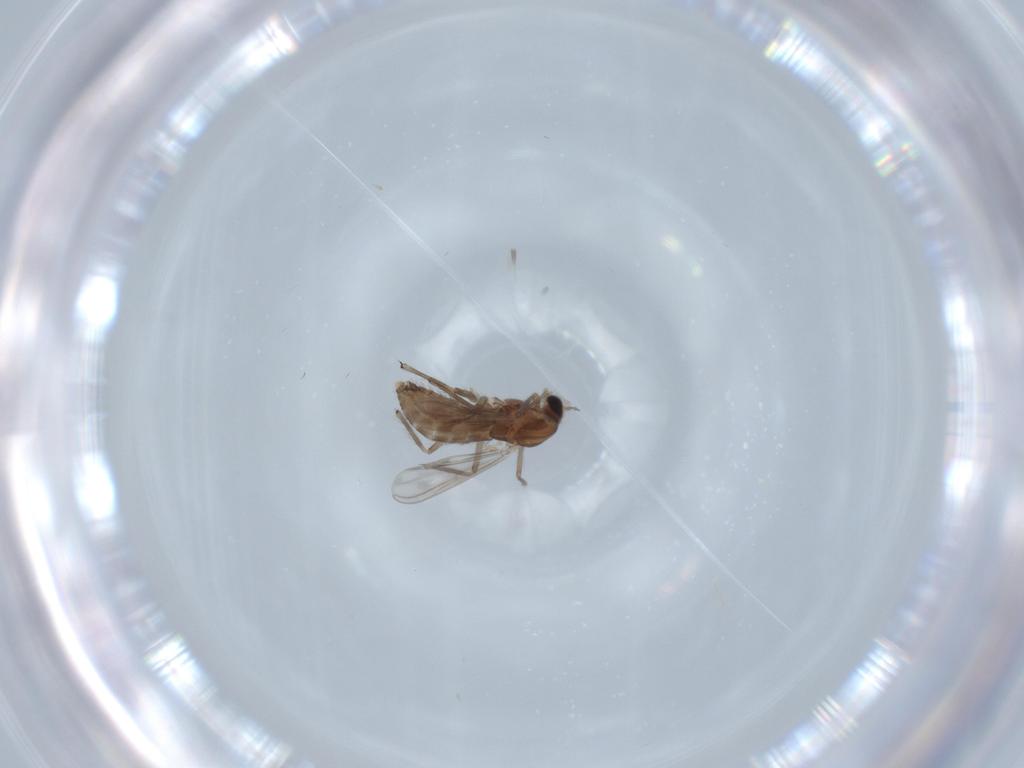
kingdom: Animalia
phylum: Arthropoda
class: Insecta
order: Diptera
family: Chironomidae
